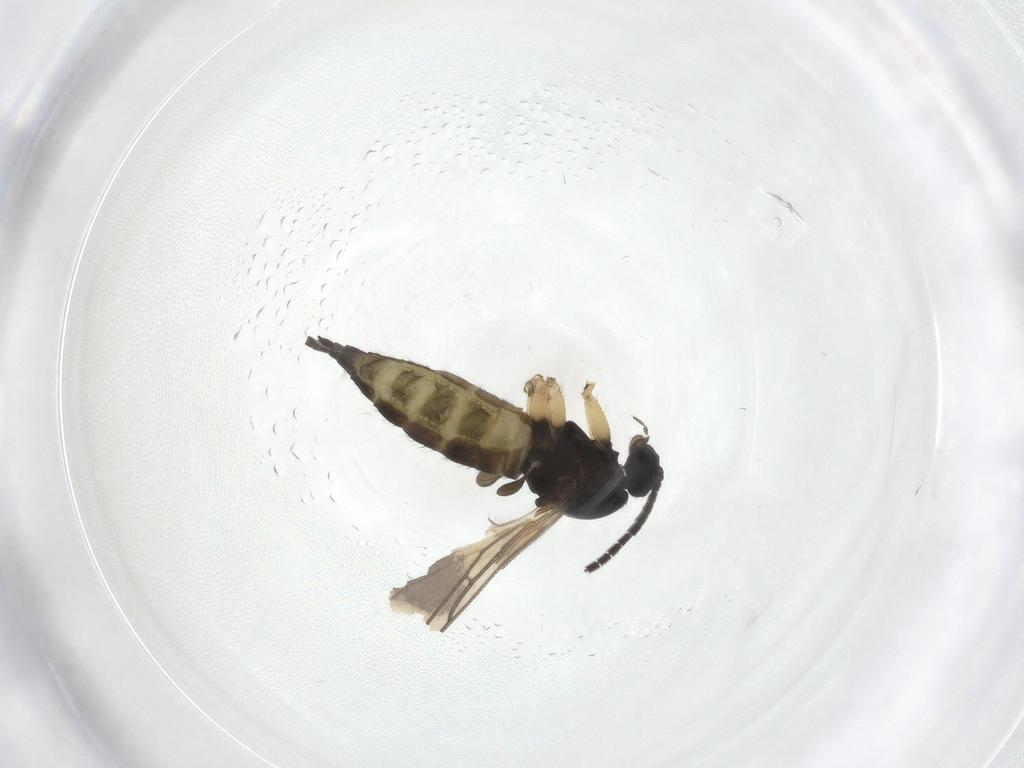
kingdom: Animalia
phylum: Arthropoda
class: Insecta
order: Diptera
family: Sciaridae
